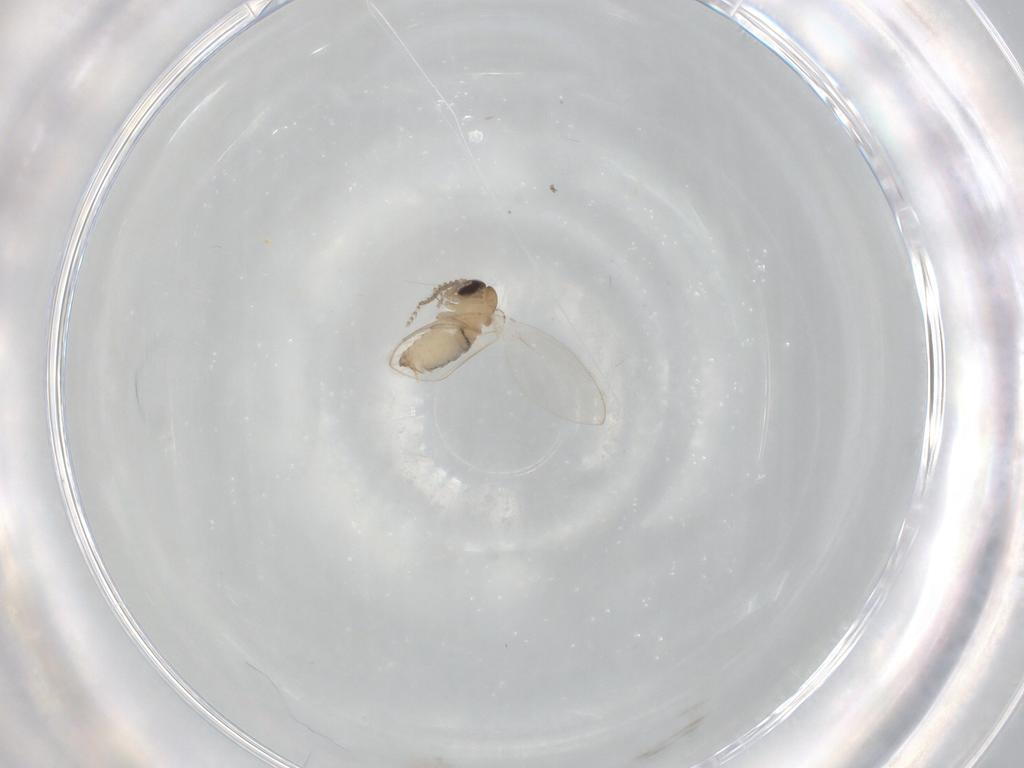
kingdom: Animalia
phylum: Arthropoda
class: Insecta
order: Diptera
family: Psychodidae
